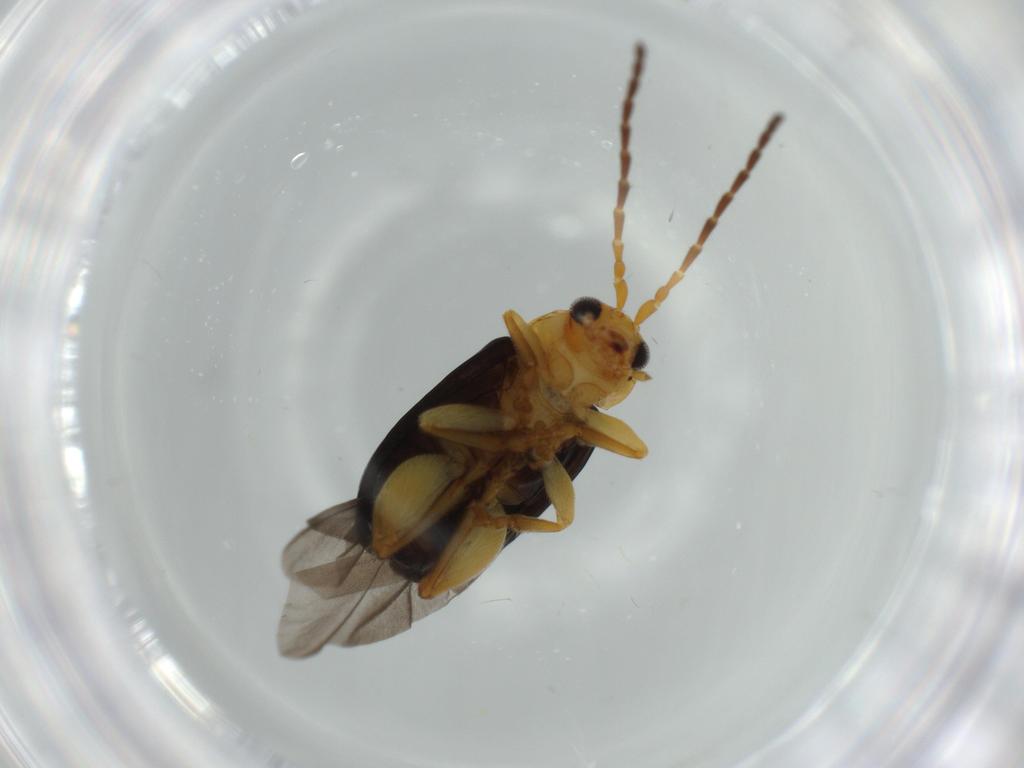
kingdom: Animalia
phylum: Arthropoda
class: Insecta
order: Coleoptera
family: Chrysomelidae
